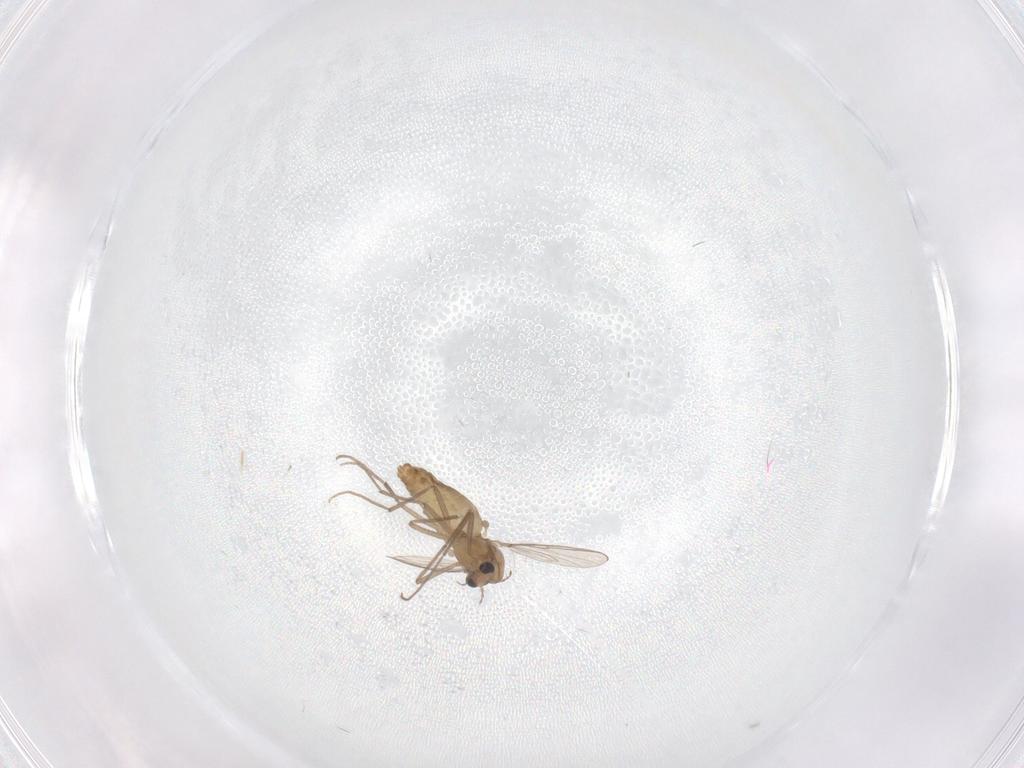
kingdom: Animalia
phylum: Arthropoda
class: Insecta
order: Diptera
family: Chironomidae
